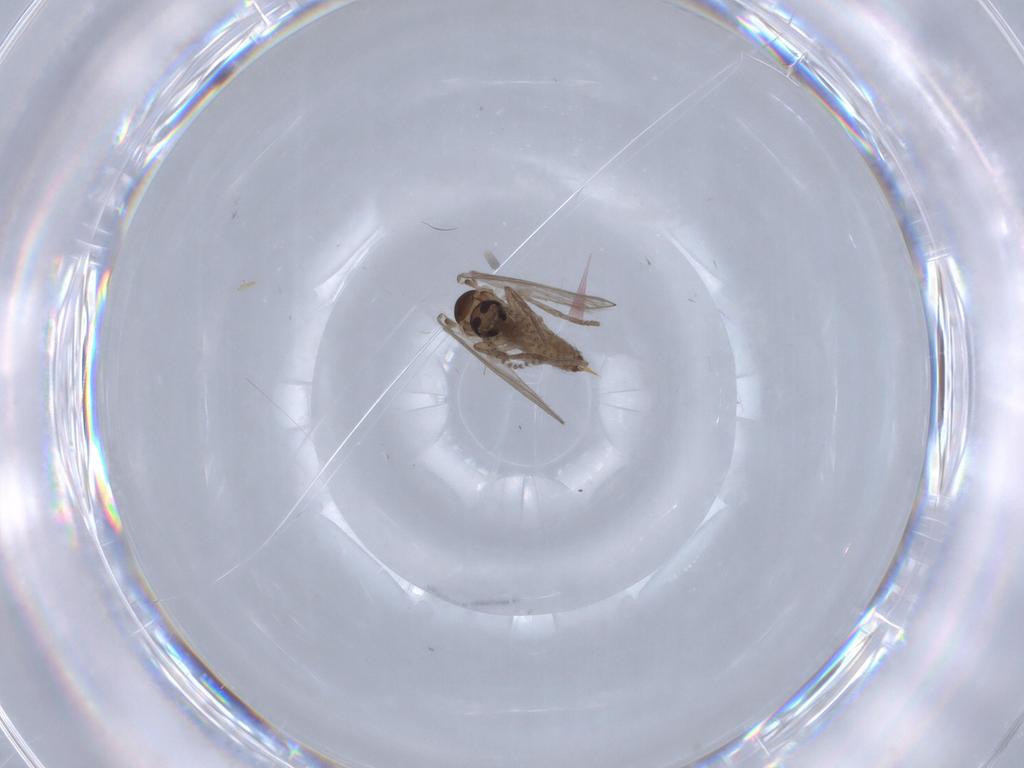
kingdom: Animalia
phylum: Arthropoda
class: Insecta
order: Diptera
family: Psychodidae
